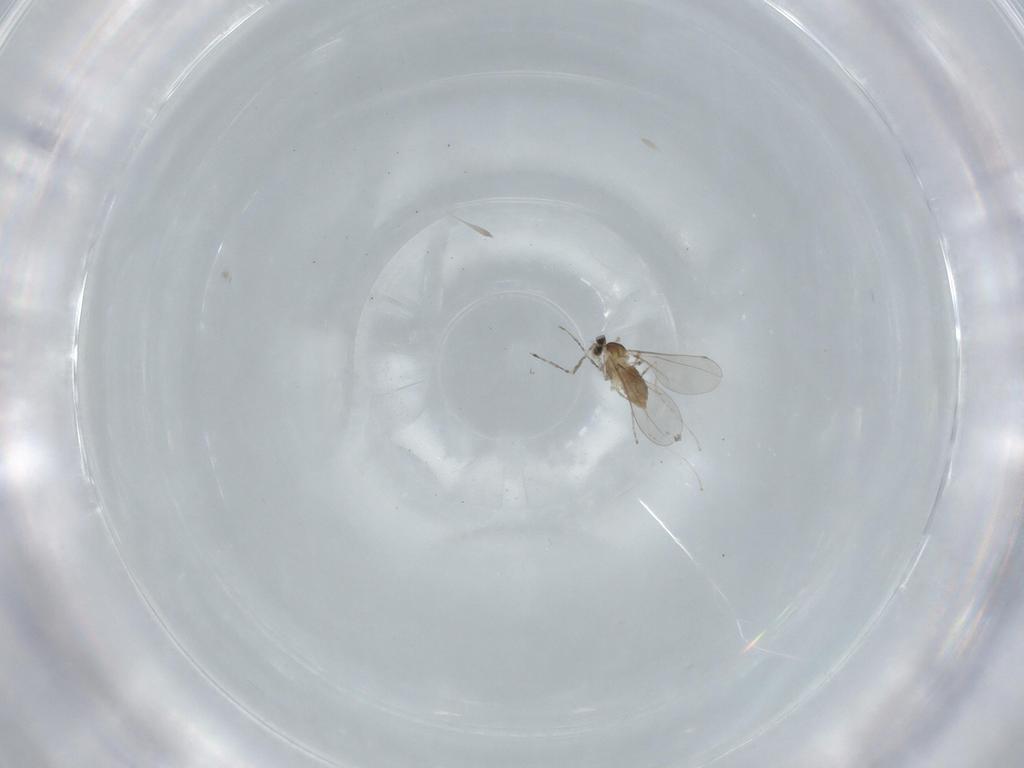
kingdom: Animalia
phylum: Arthropoda
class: Insecta
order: Diptera
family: Cecidomyiidae
